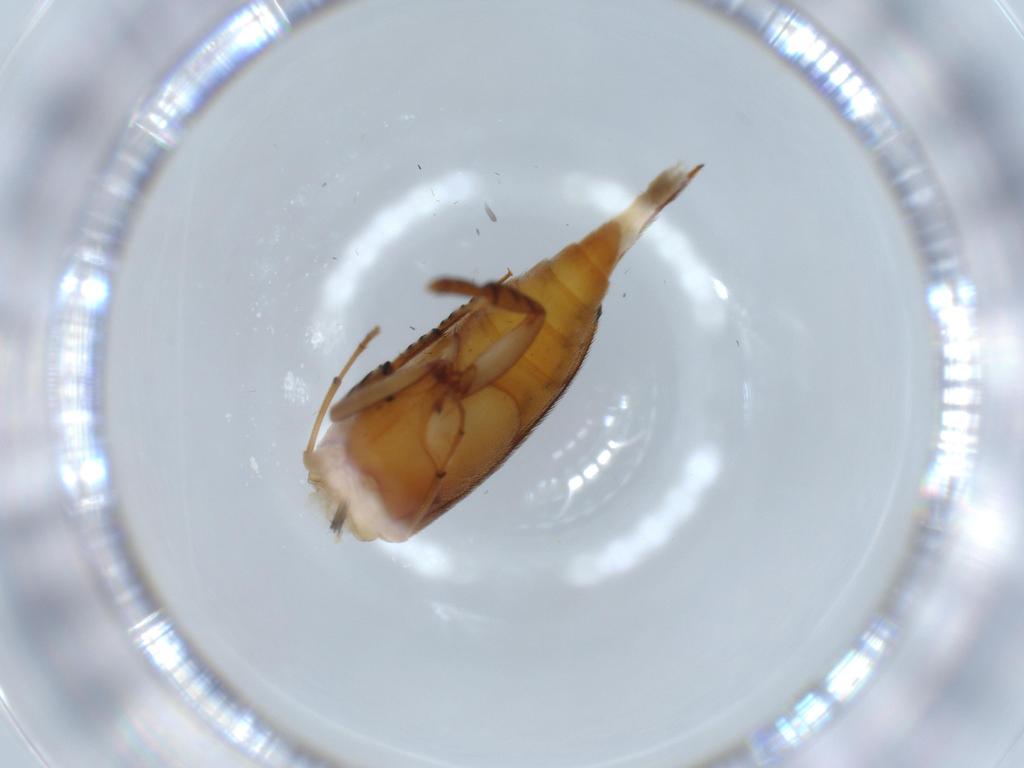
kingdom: Animalia
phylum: Arthropoda
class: Insecta
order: Coleoptera
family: Mordellidae
